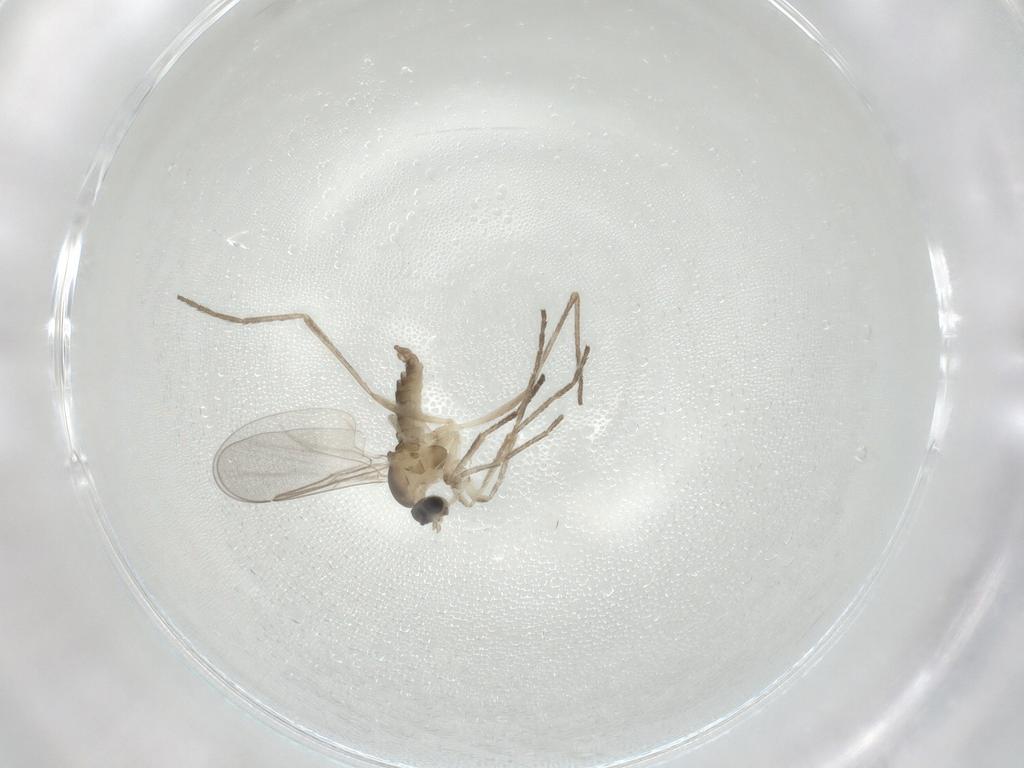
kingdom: Animalia
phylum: Arthropoda
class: Insecta
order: Diptera
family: Cecidomyiidae
